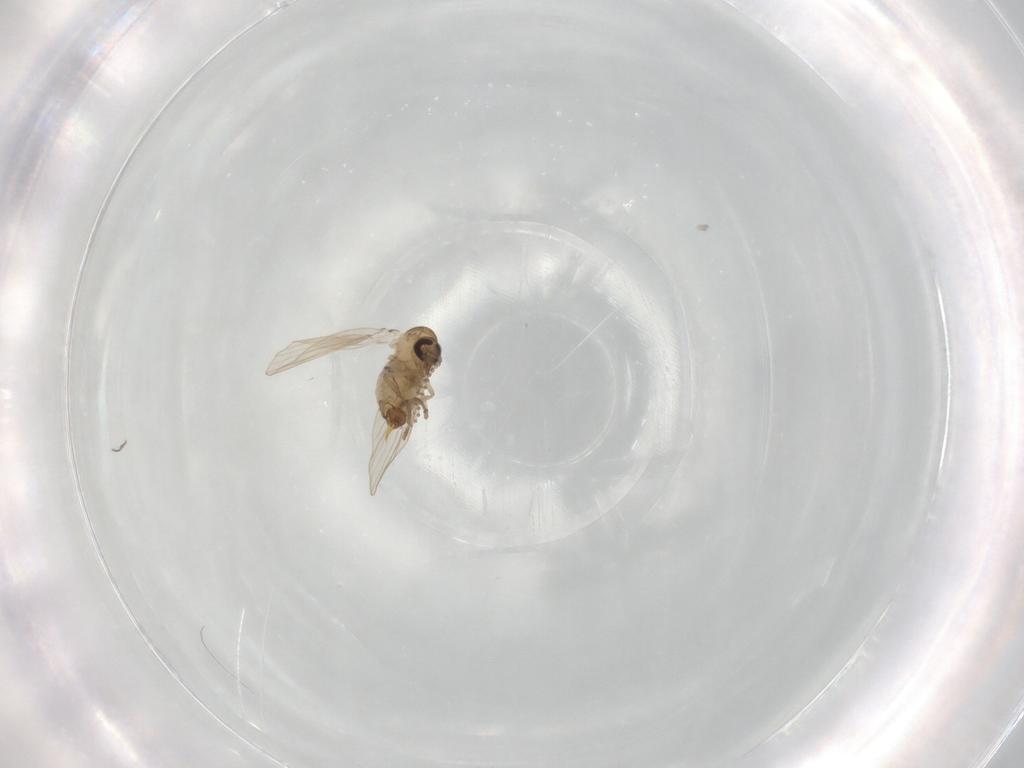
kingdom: Animalia
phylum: Arthropoda
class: Insecta
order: Diptera
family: Psychodidae
